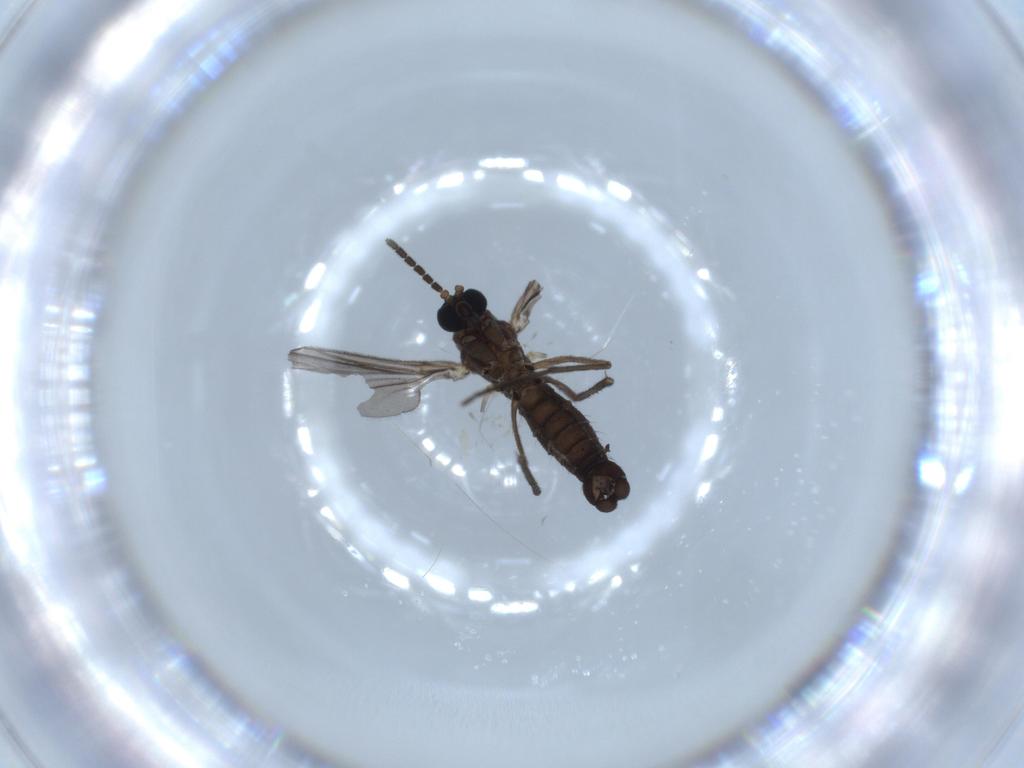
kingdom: Animalia
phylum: Arthropoda
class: Insecta
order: Diptera
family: Sciaridae
